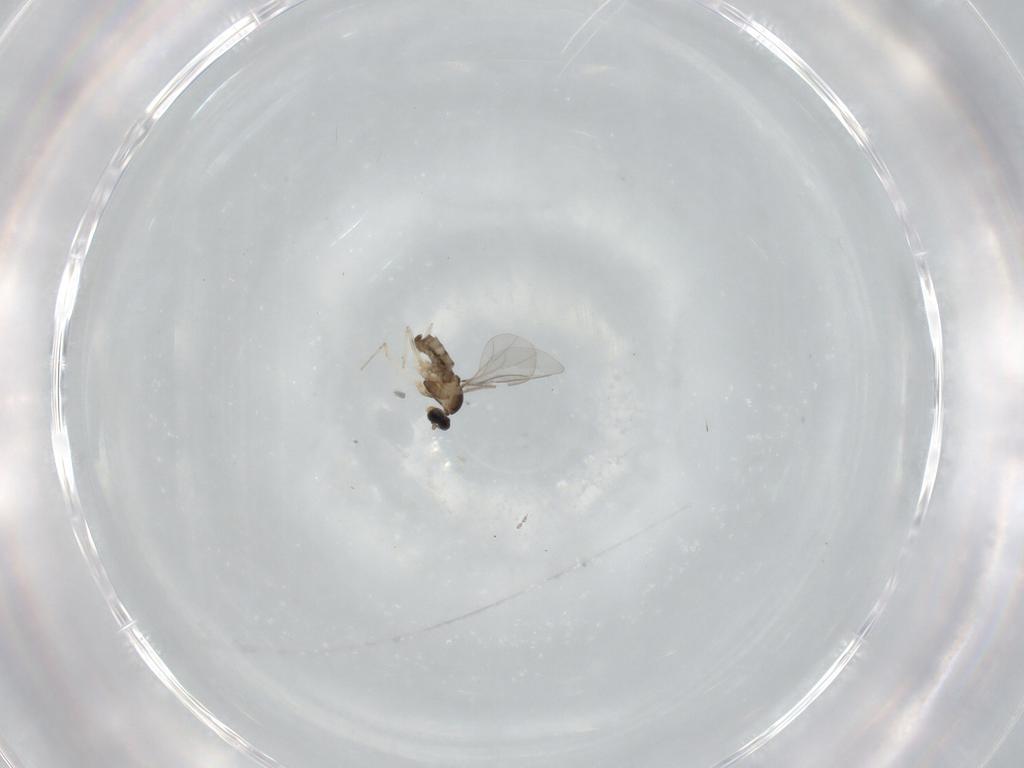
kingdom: Animalia
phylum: Arthropoda
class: Insecta
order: Diptera
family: Cecidomyiidae
